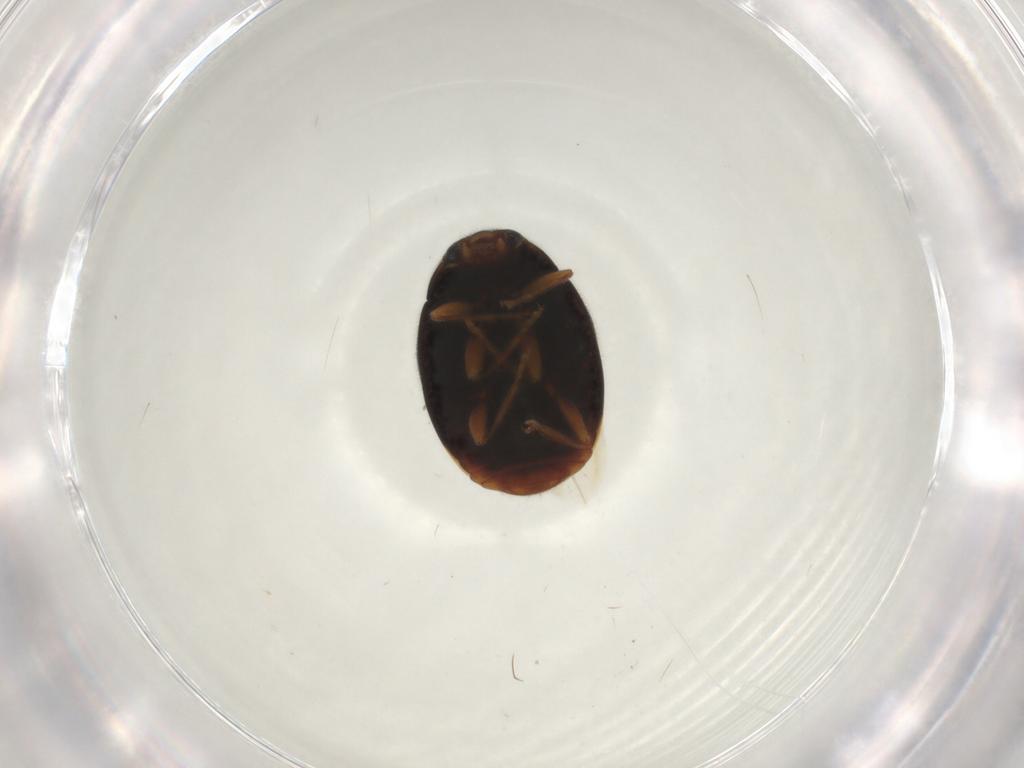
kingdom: Animalia
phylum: Arthropoda
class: Insecta
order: Coleoptera
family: Coccinellidae
